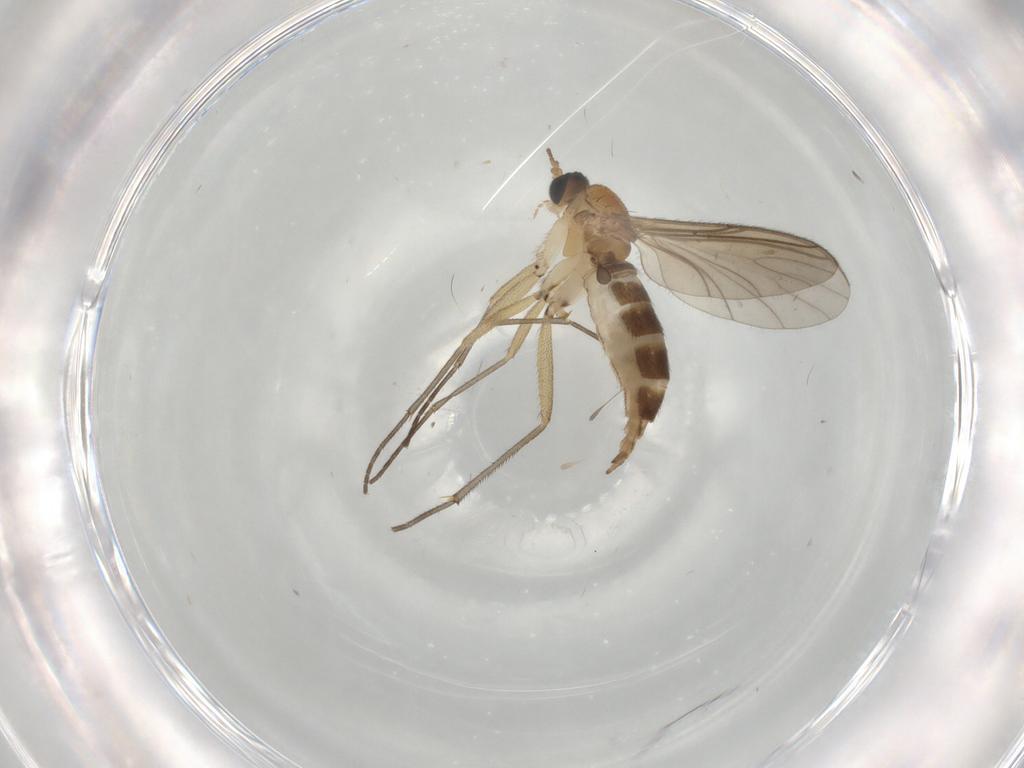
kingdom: Animalia
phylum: Arthropoda
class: Insecta
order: Diptera
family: Sciaridae
